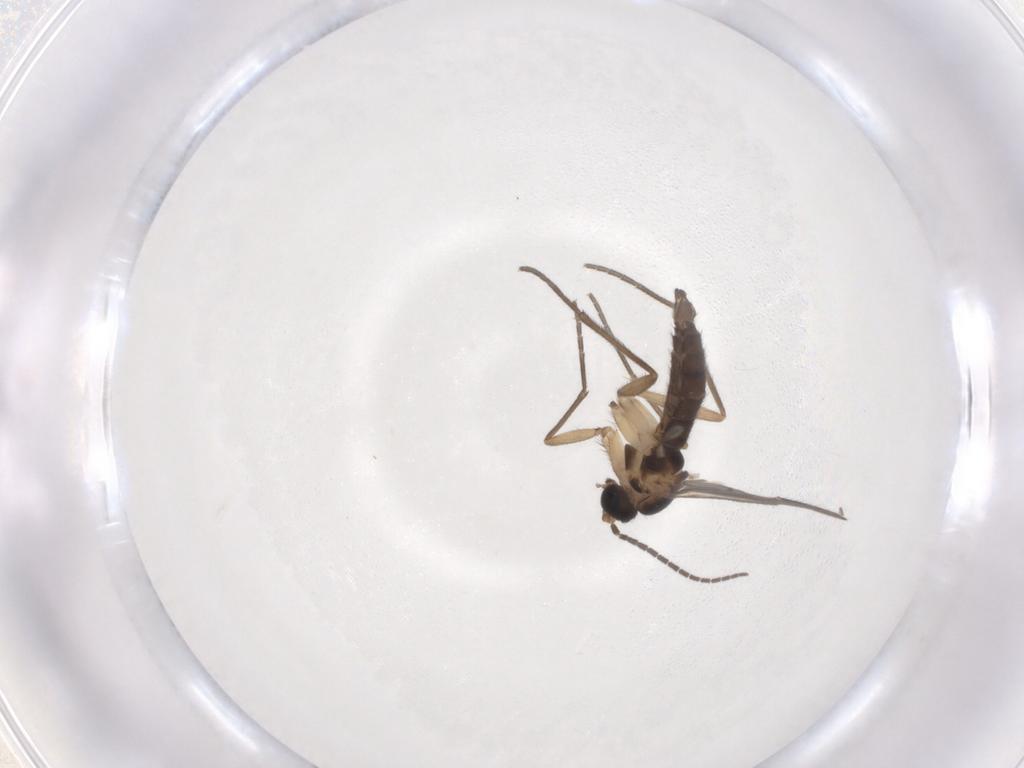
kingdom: Animalia
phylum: Arthropoda
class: Insecta
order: Diptera
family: Sciaridae
